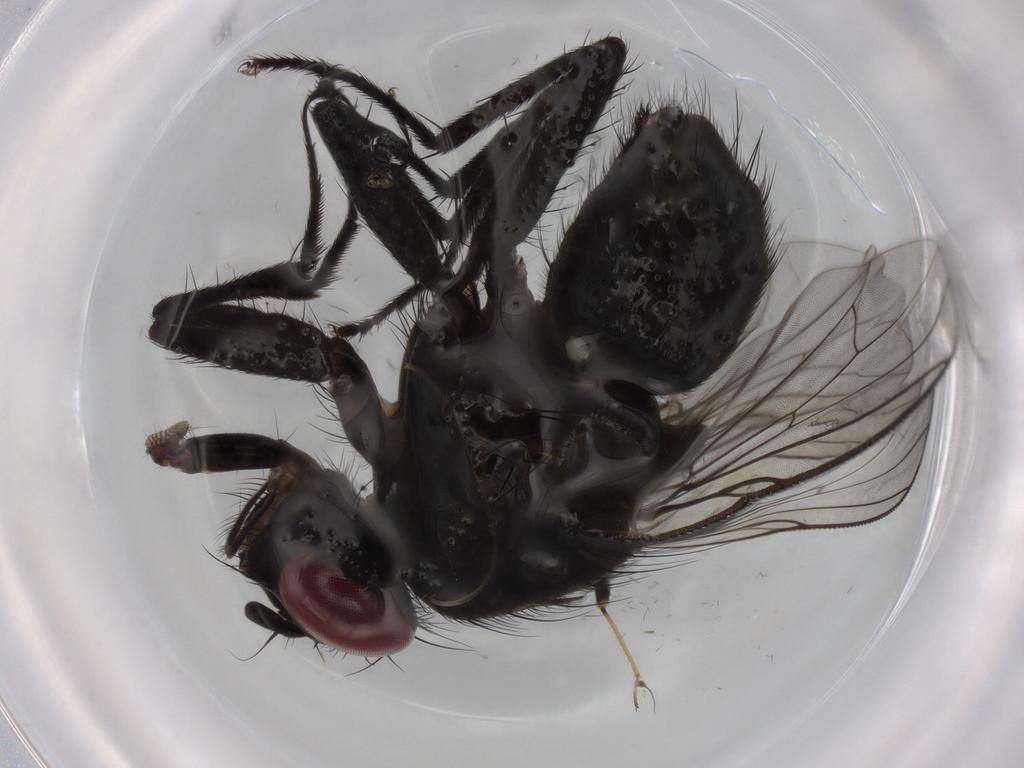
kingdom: Animalia
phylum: Arthropoda
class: Insecta
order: Diptera
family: Muscidae
